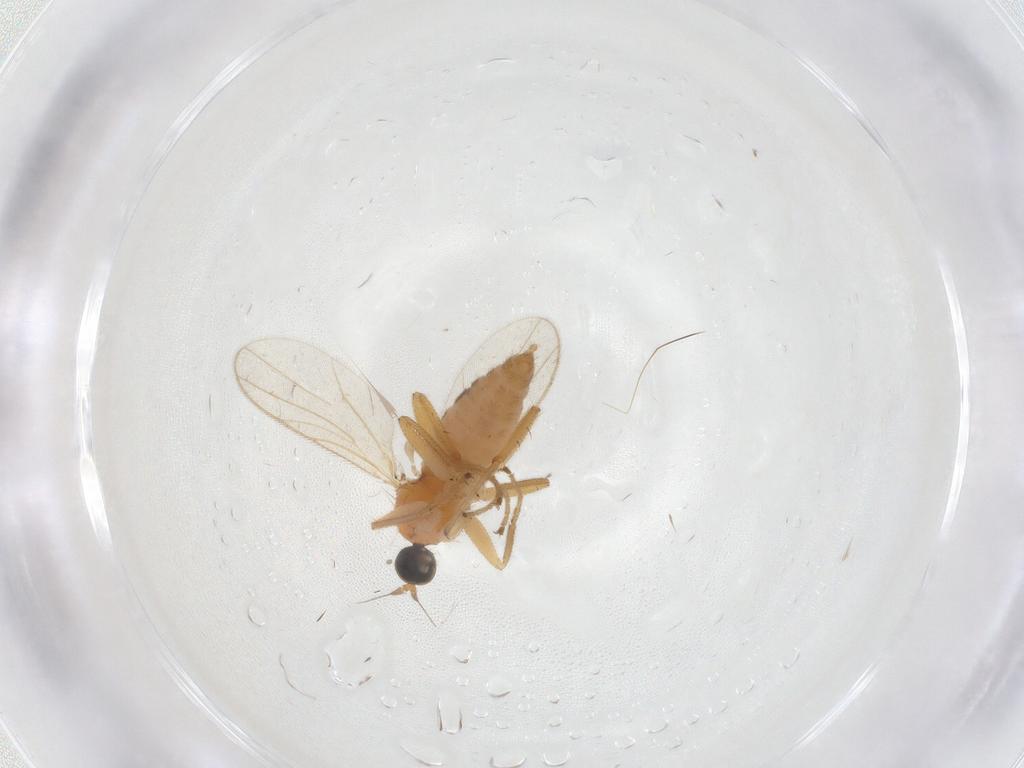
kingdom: Animalia
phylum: Arthropoda
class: Insecta
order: Diptera
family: Hybotidae
